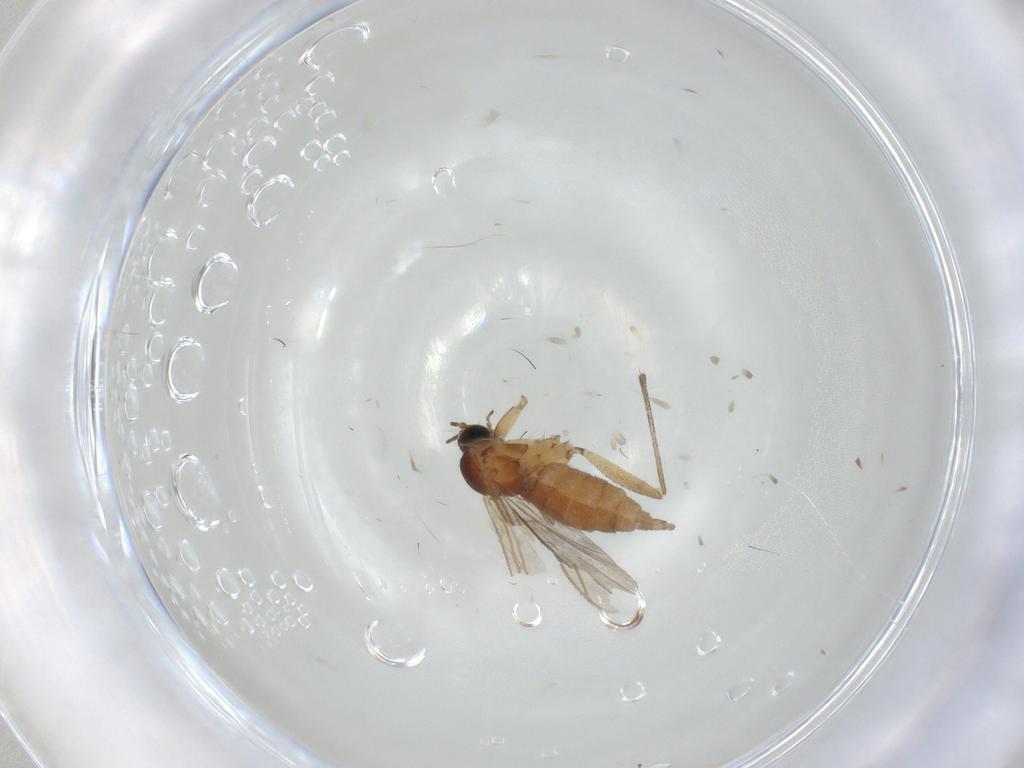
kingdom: Animalia
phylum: Arthropoda
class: Insecta
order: Diptera
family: Sciaridae
